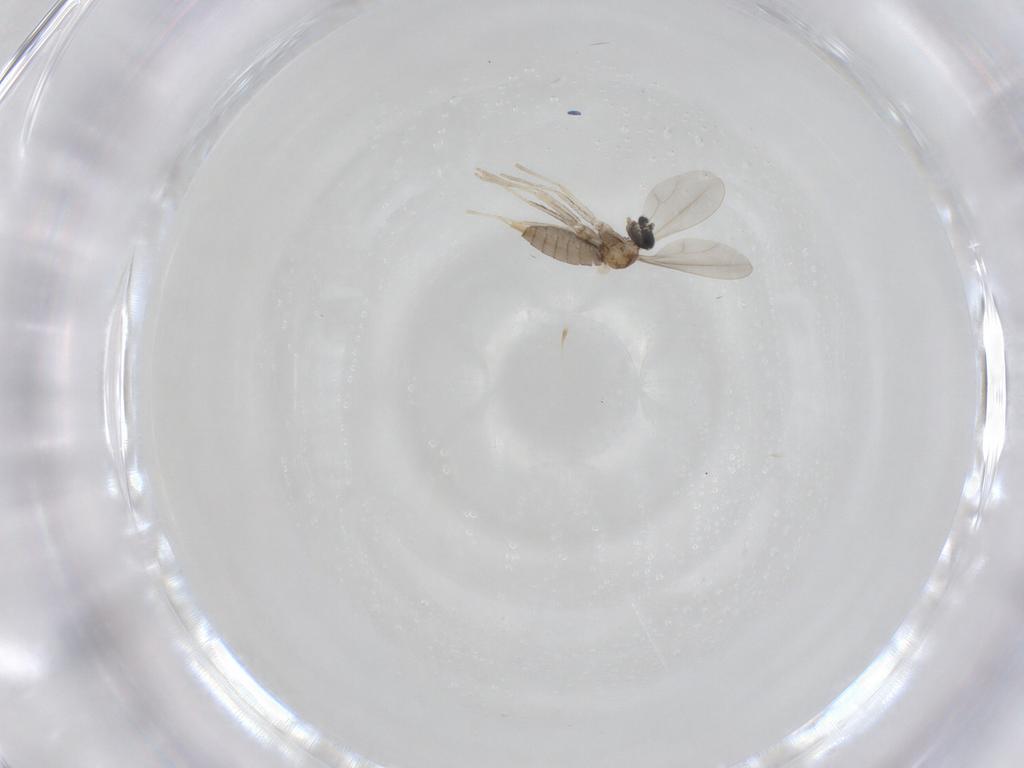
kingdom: Animalia
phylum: Arthropoda
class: Insecta
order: Diptera
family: Cecidomyiidae
